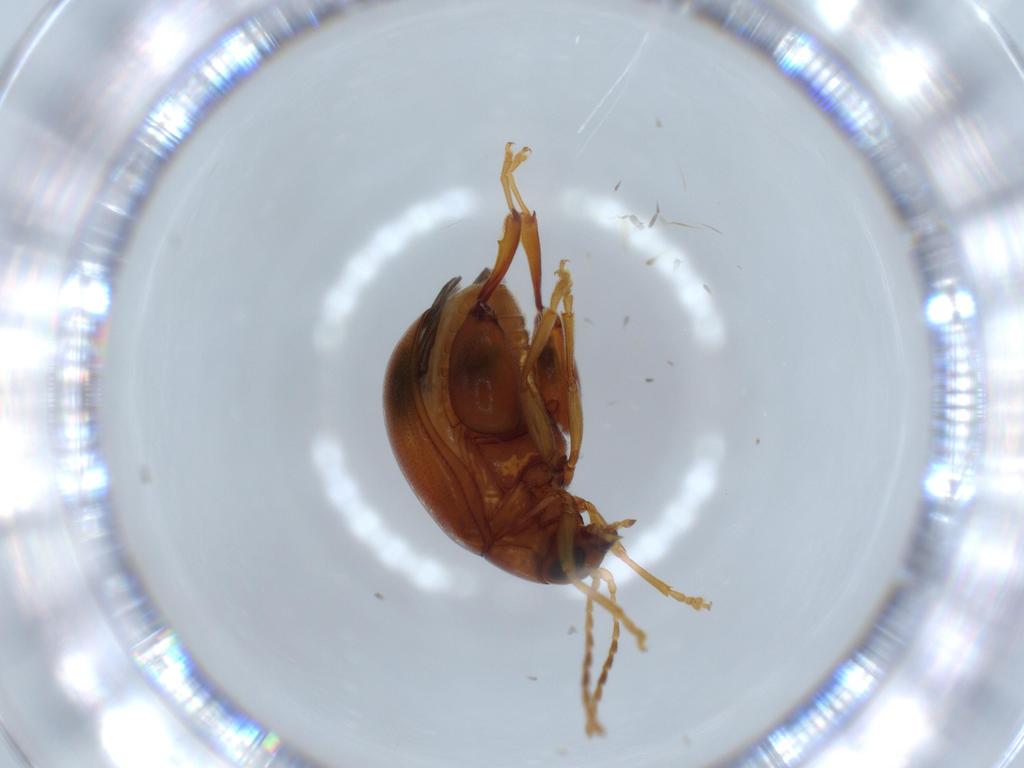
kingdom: Animalia
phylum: Arthropoda
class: Insecta
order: Coleoptera
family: Chrysomelidae
